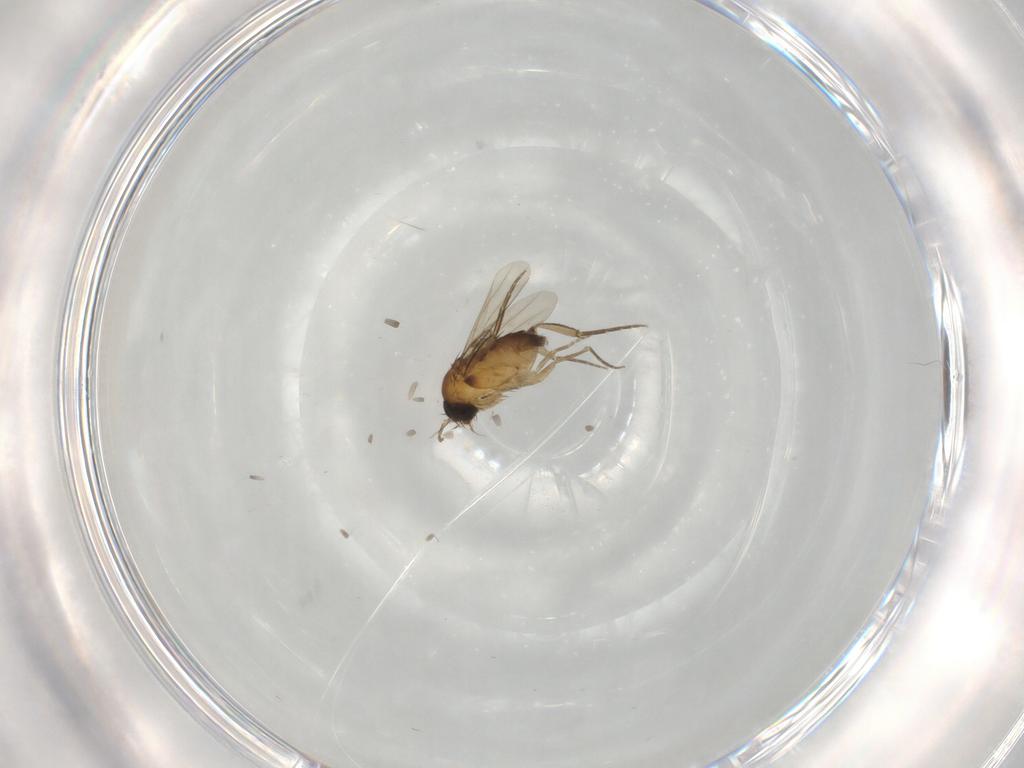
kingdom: Animalia
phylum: Arthropoda
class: Insecta
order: Diptera
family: Phoridae
